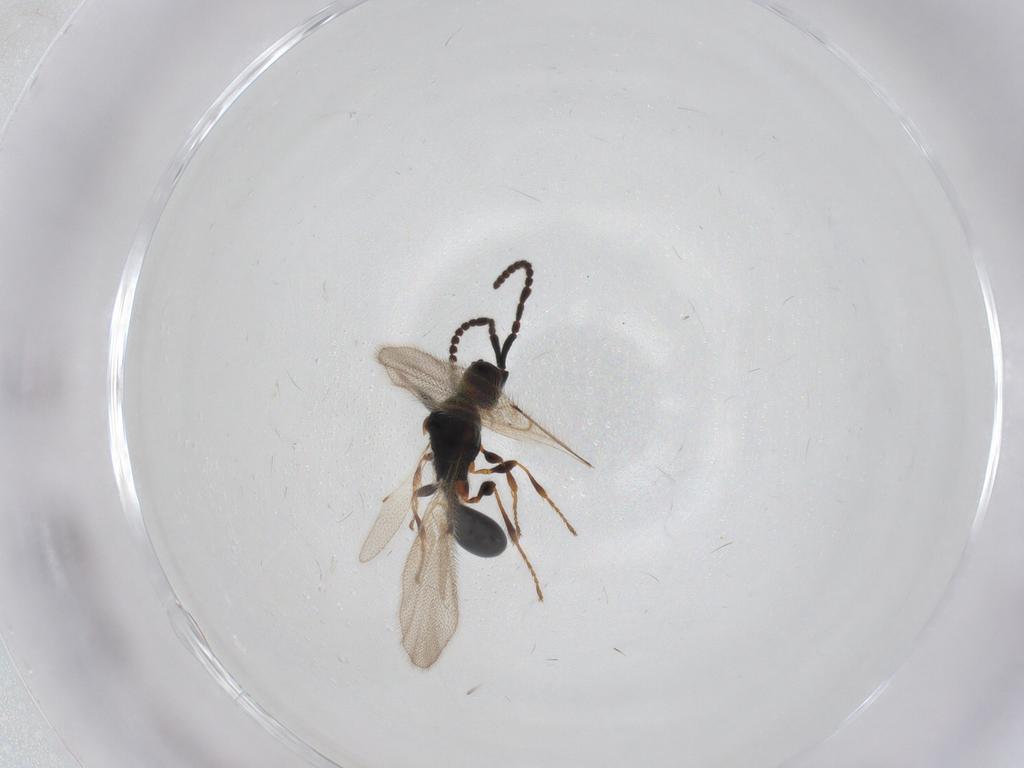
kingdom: Animalia
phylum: Arthropoda
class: Insecta
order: Hymenoptera
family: Diapriidae
